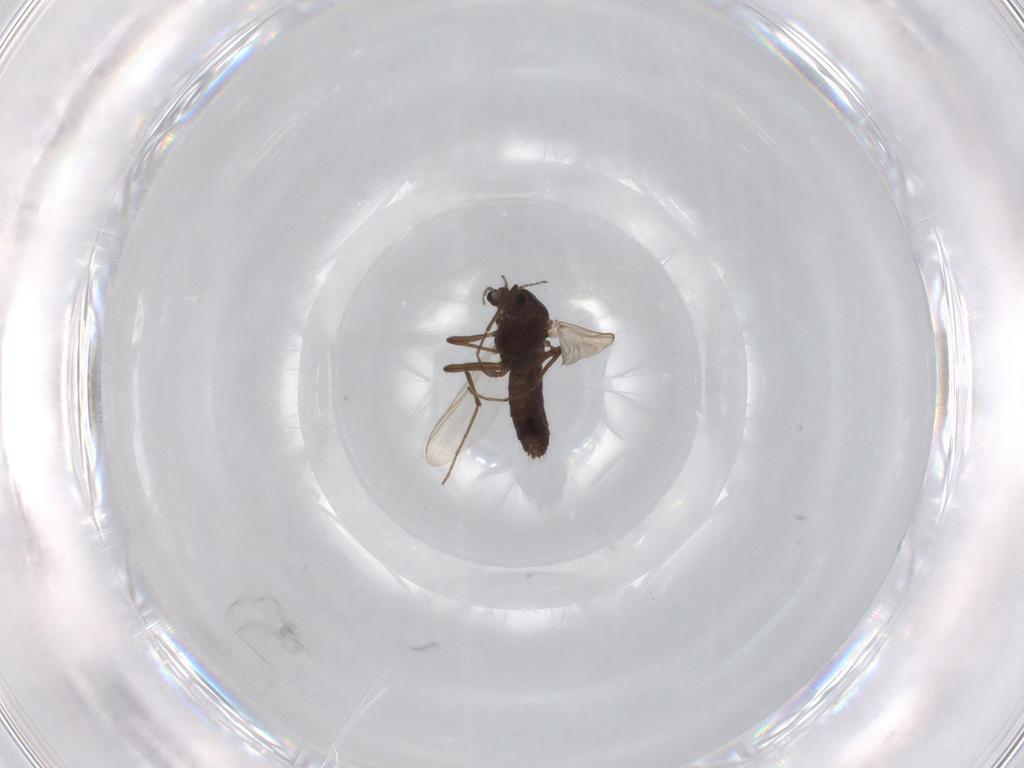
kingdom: Animalia
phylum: Arthropoda
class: Insecta
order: Diptera
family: Chironomidae
